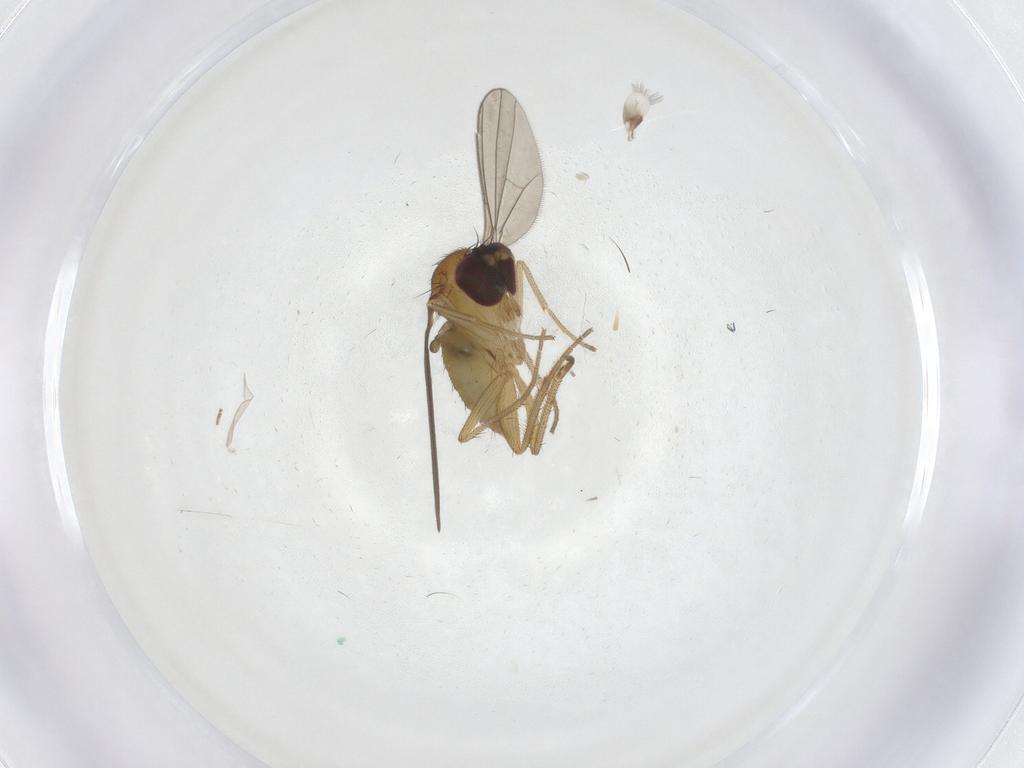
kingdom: Animalia
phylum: Arthropoda
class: Insecta
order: Diptera
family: Dolichopodidae
